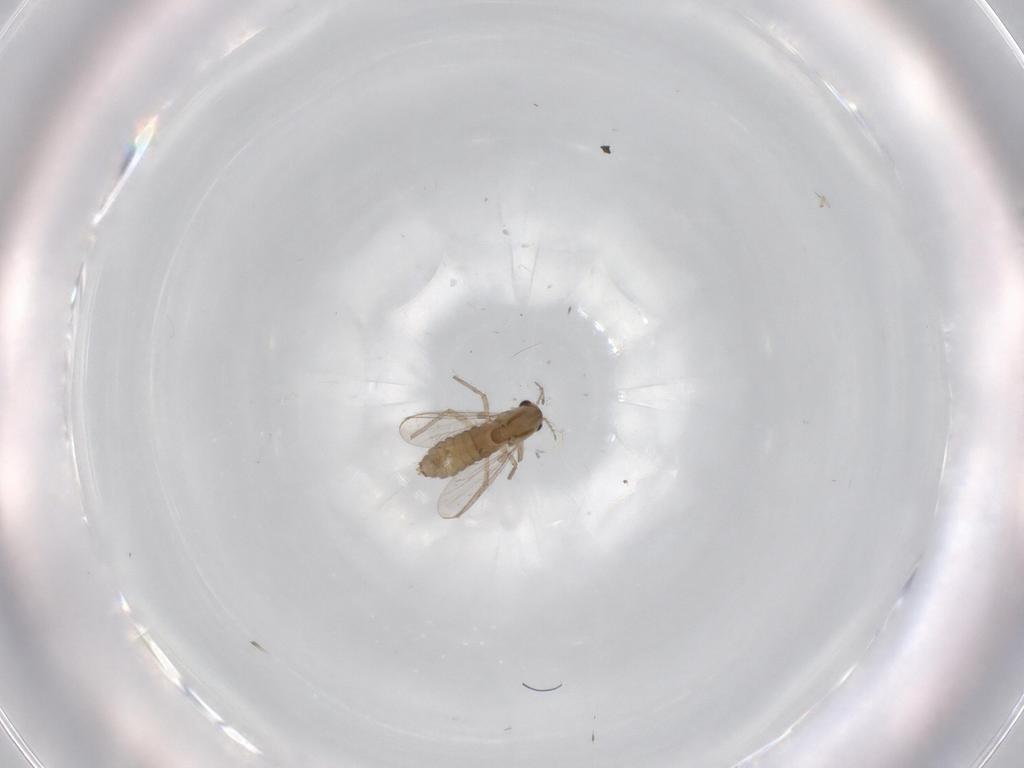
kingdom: Animalia
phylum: Arthropoda
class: Insecta
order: Diptera
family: Chironomidae
